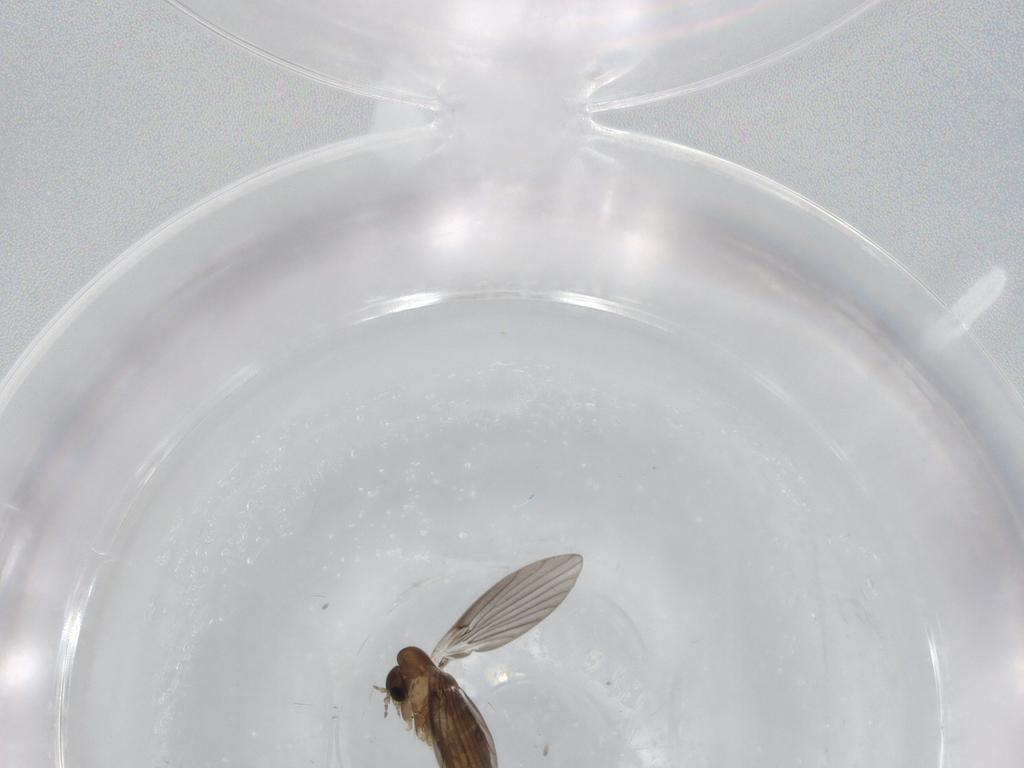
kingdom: Animalia
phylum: Arthropoda
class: Insecta
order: Diptera
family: Psychodidae
